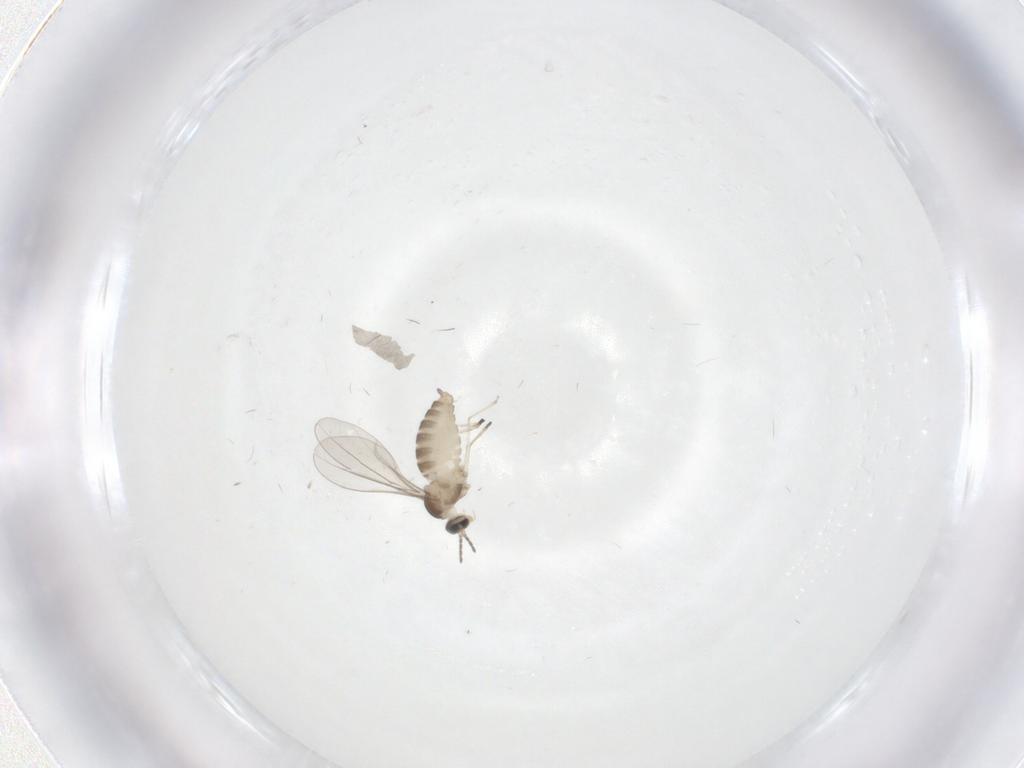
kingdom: Animalia
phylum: Arthropoda
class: Insecta
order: Diptera
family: Cecidomyiidae
